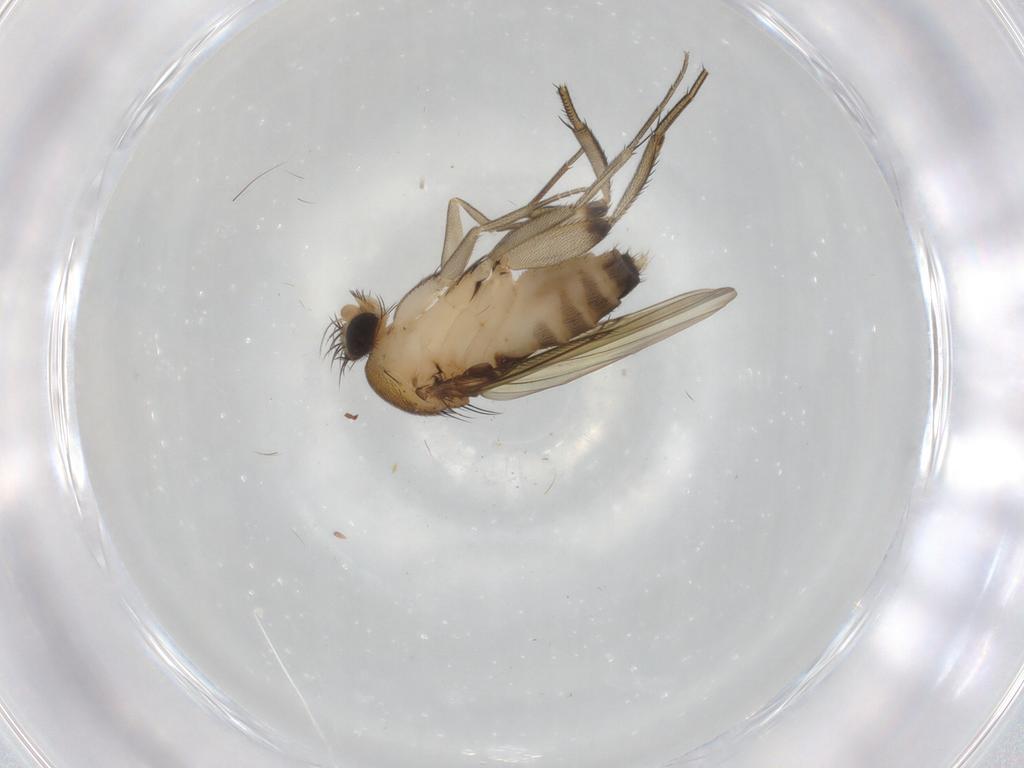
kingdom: Animalia
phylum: Arthropoda
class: Insecta
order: Diptera
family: Phoridae
